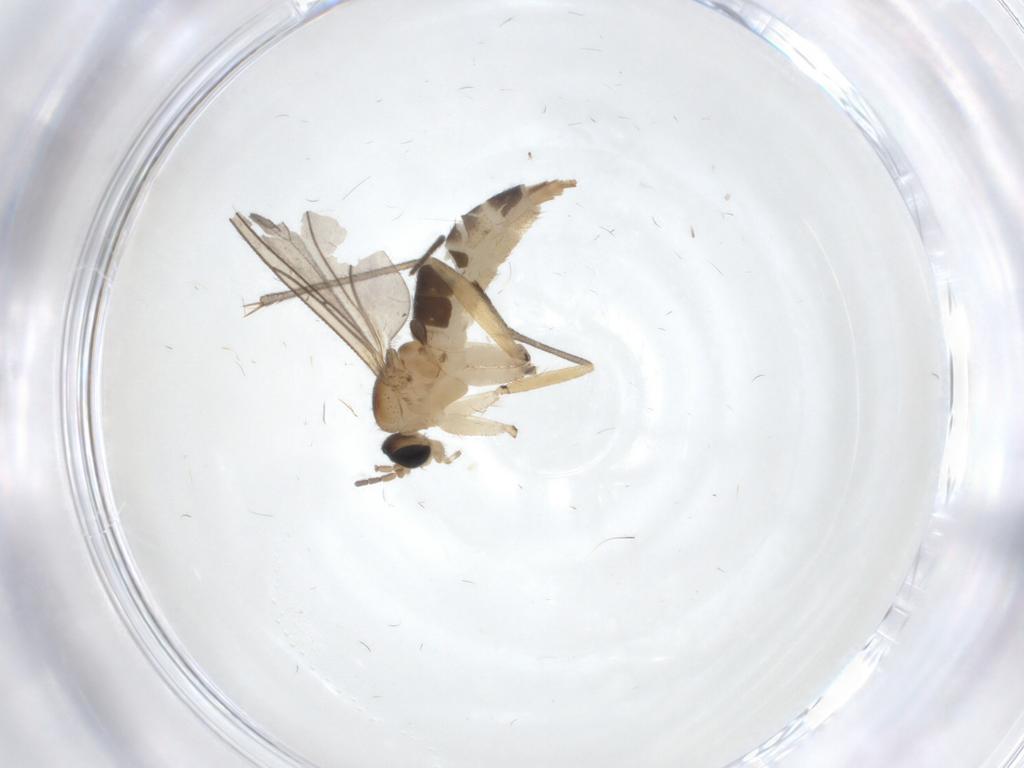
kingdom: Animalia
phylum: Arthropoda
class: Insecta
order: Diptera
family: Sciaridae
